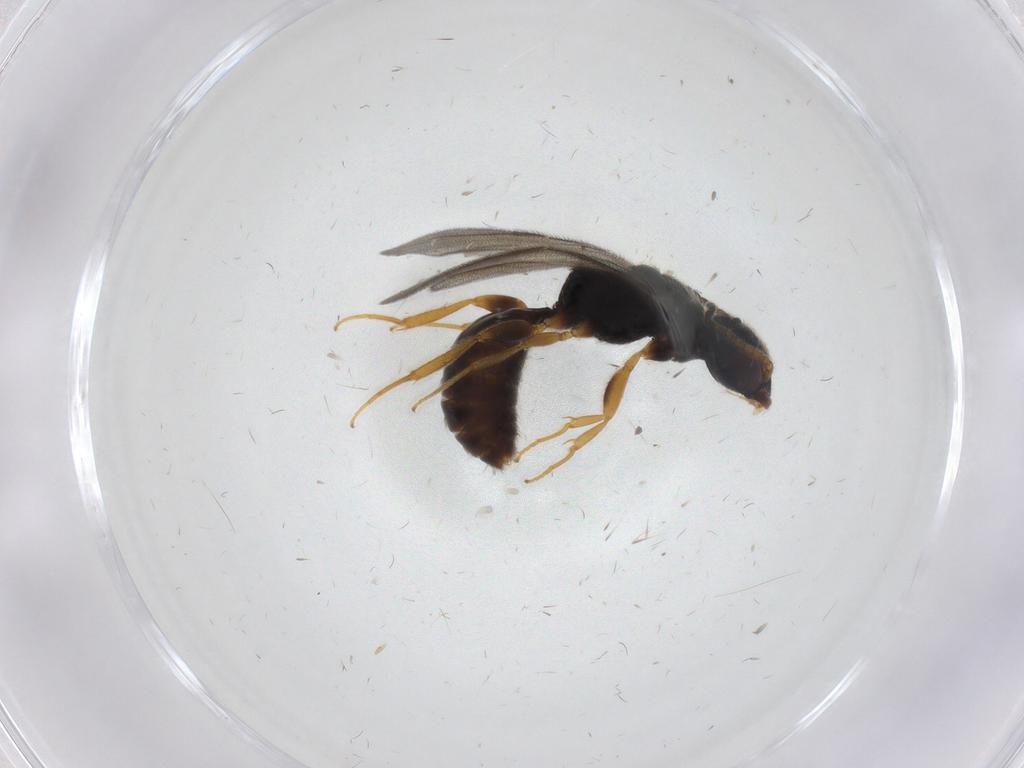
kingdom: Animalia
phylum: Arthropoda
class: Insecta
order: Hymenoptera
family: Bethylidae
